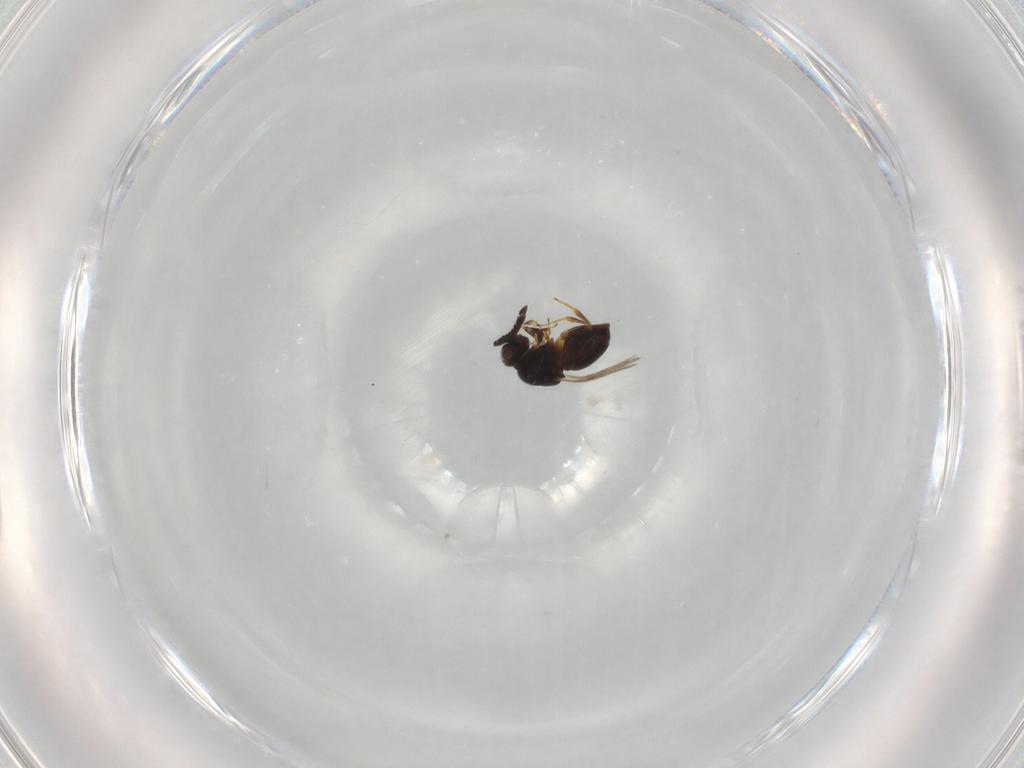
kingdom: Animalia
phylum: Arthropoda
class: Insecta
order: Hymenoptera
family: Ceraphronidae
